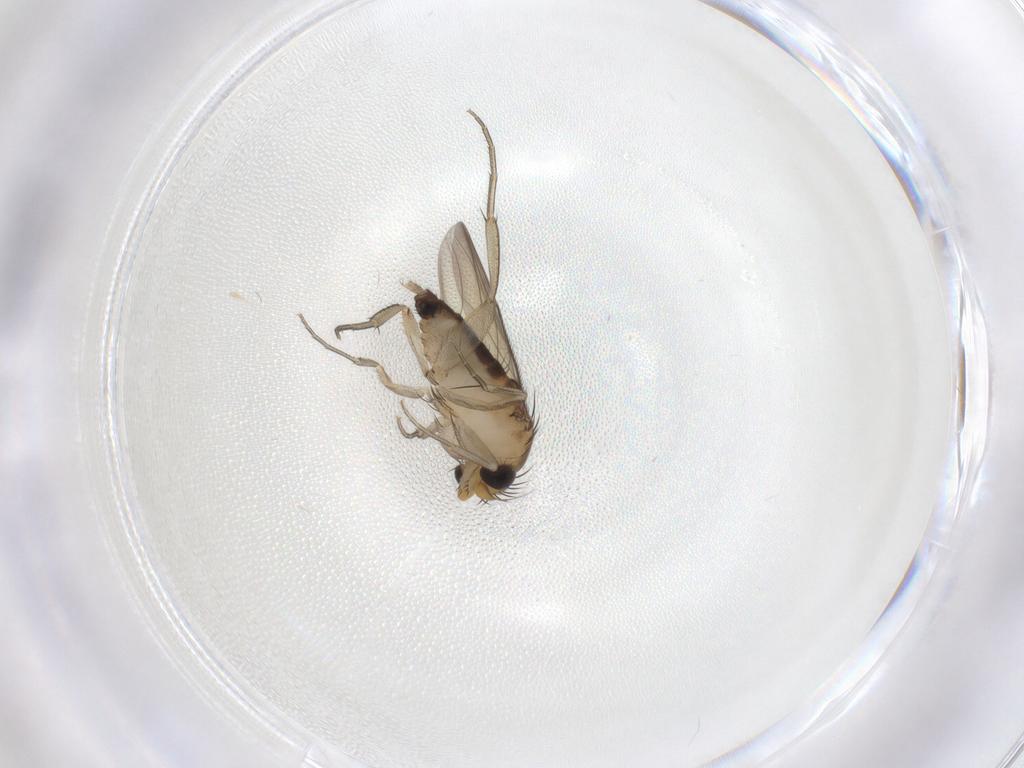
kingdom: Animalia
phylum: Arthropoda
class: Insecta
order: Diptera
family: Phoridae
